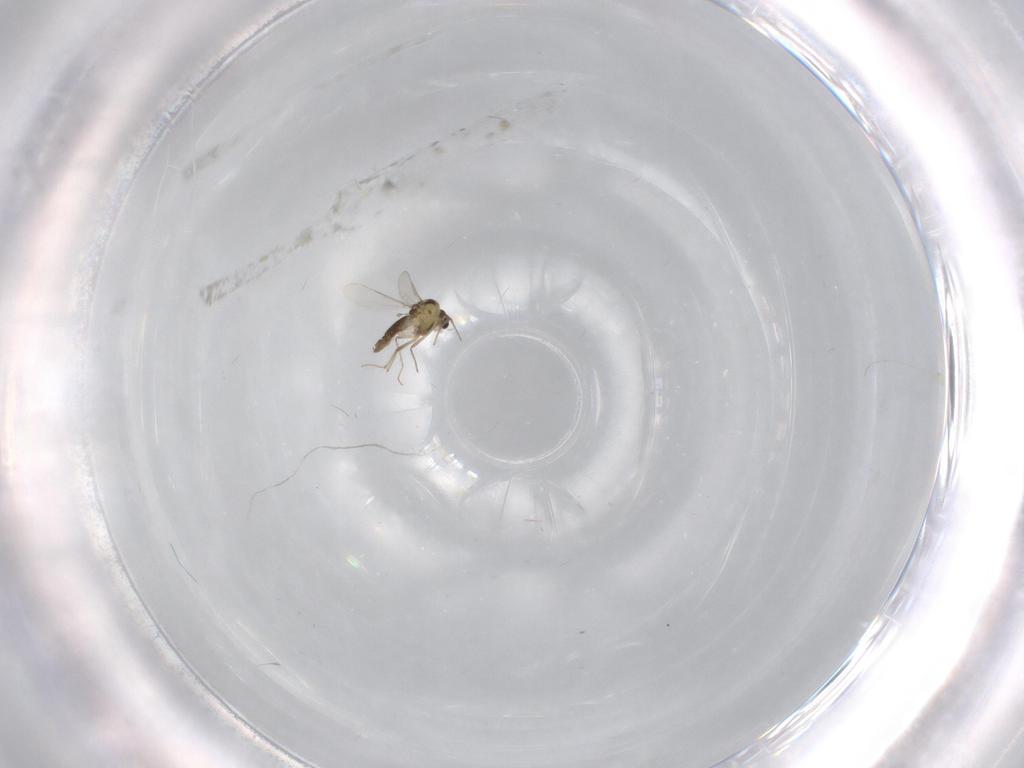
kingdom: Animalia
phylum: Arthropoda
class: Insecta
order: Diptera
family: Chironomidae
